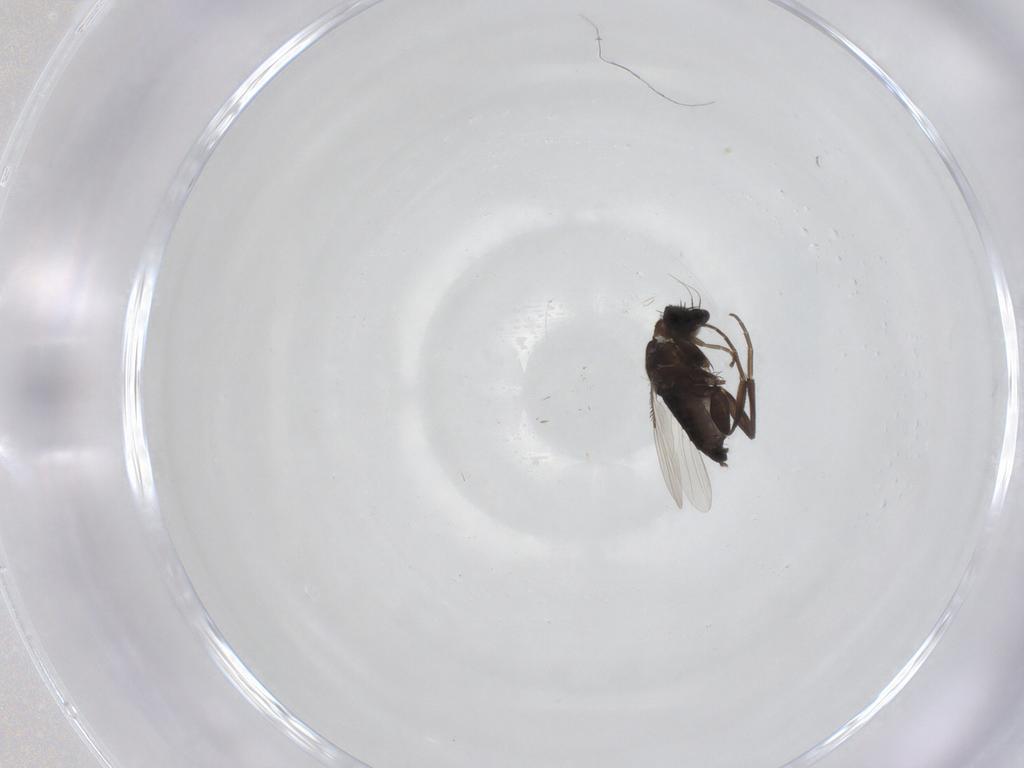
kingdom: Animalia
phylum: Arthropoda
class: Insecta
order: Diptera
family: Phoridae
